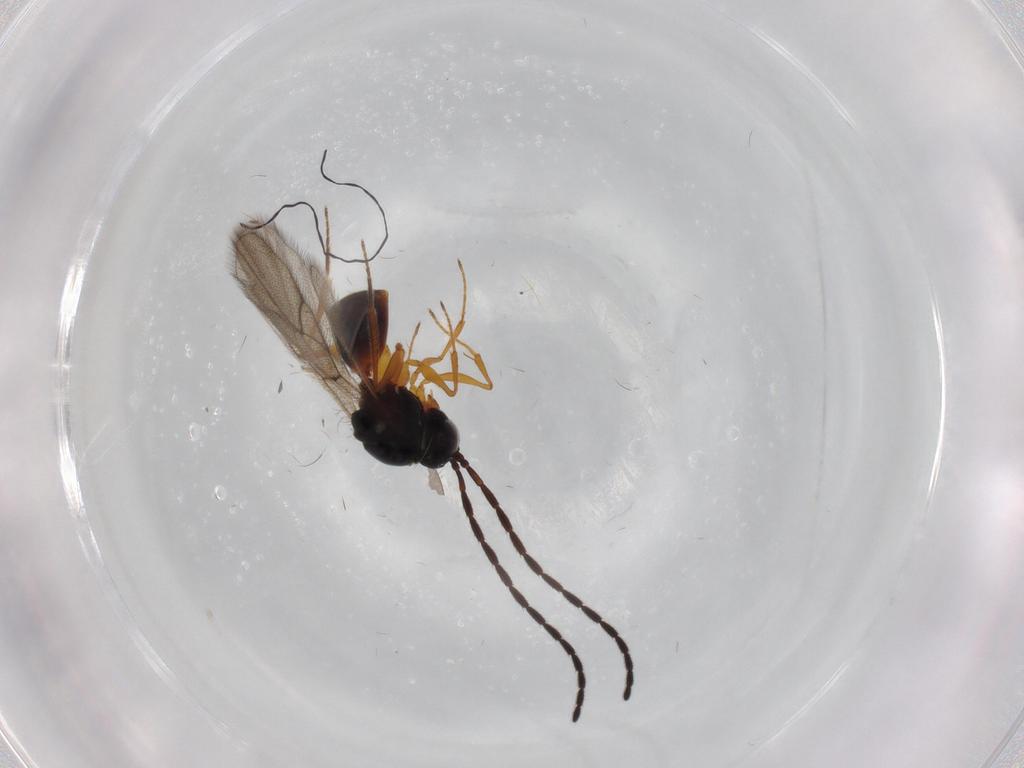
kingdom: Animalia
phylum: Arthropoda
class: Insecta
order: Hymenoptera
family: Figitidae
